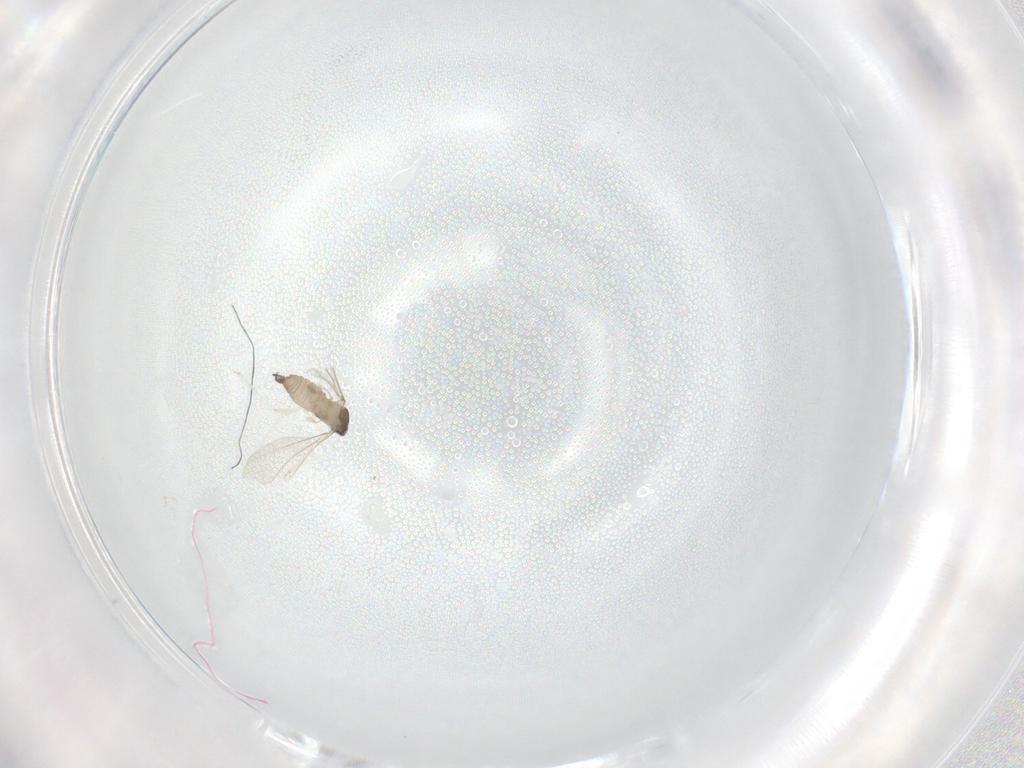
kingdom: Animalia
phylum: Arthropoda
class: Insecta
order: Diptera
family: Cecidomyiidae
